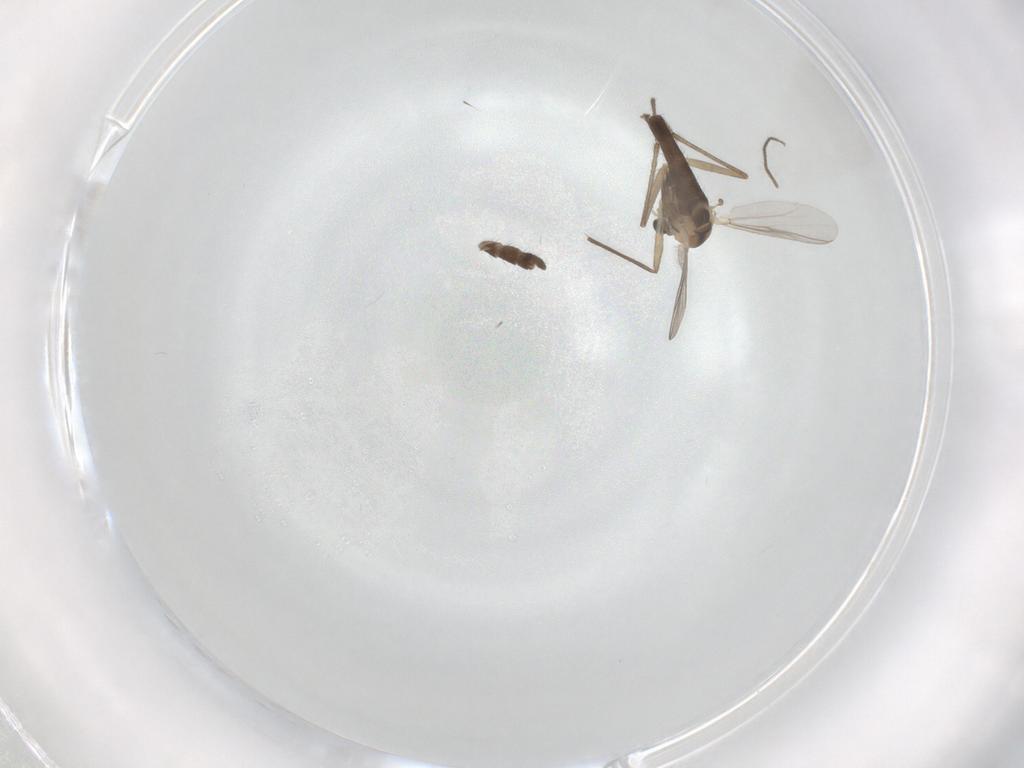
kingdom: Animalia
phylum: Arthropoda
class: Insecta
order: Diptera
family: Chironomidae
